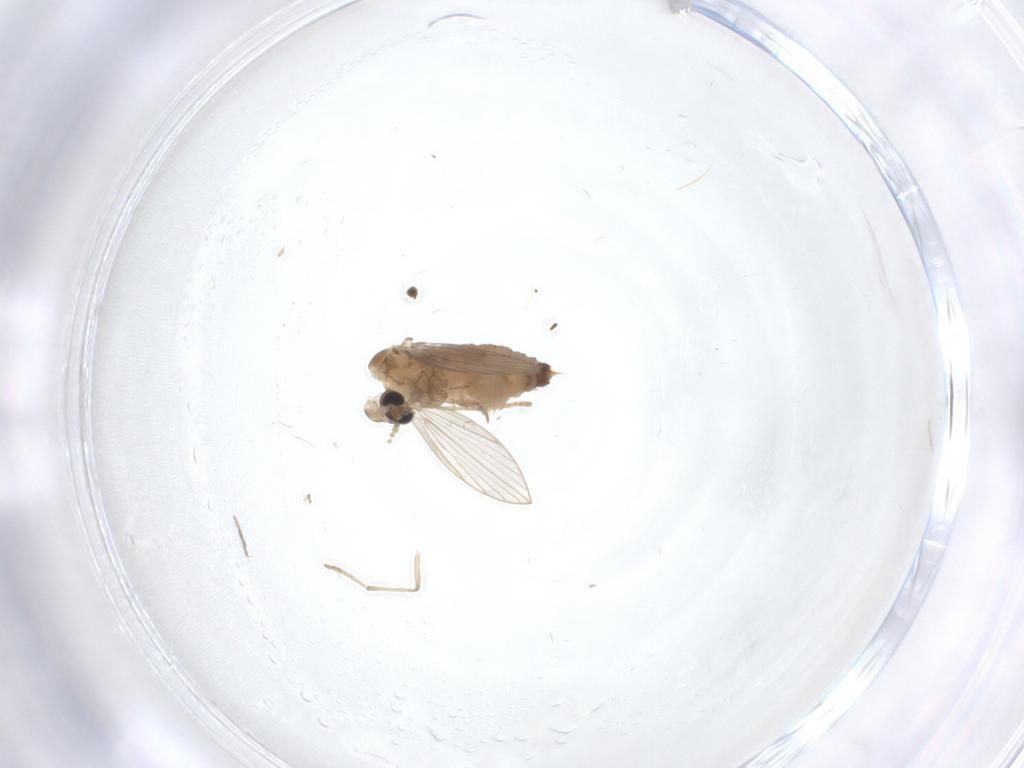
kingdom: Animalia
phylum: Arthropoda
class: Insecta
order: Diptera
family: Psychodidae
